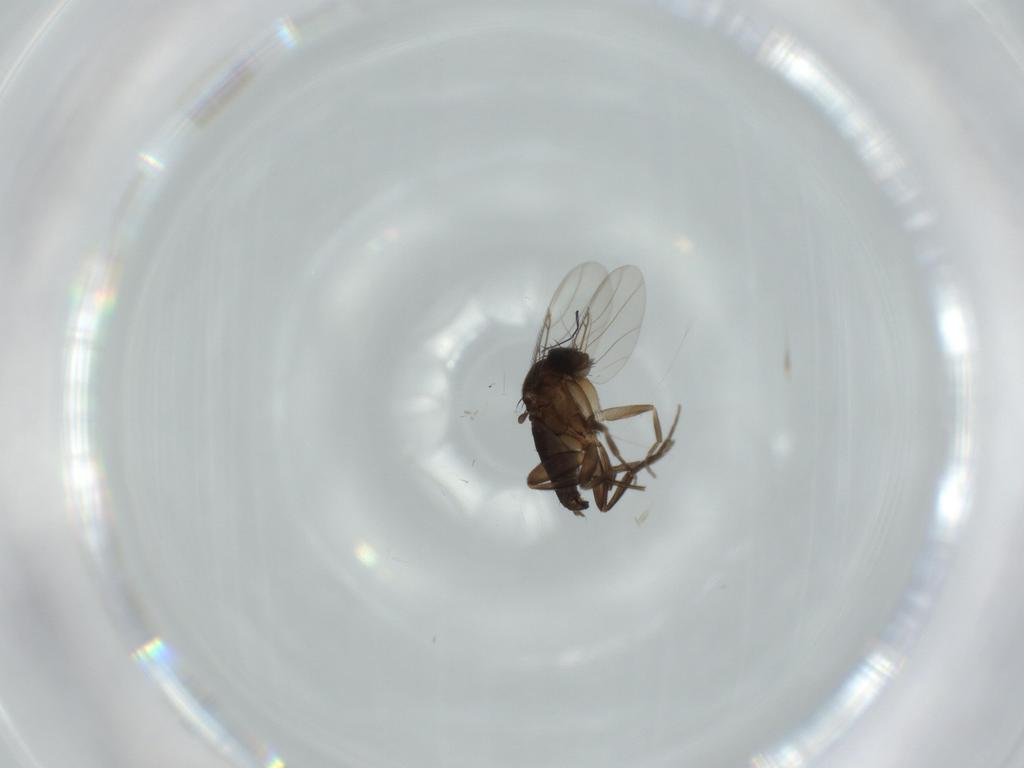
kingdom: Animalia
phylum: Arthropoda
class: Insecta
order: Diptera
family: Phoridae
